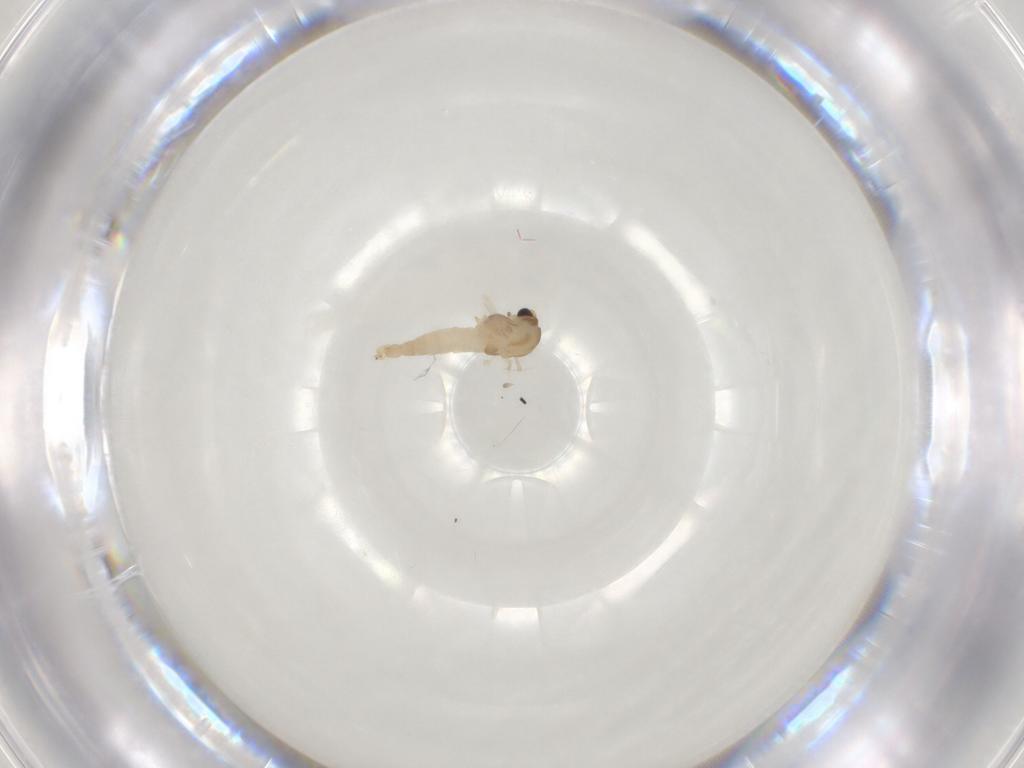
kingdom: Animalia
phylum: Arthropoda
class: Insecta
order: Diptera
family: Chironomidae
